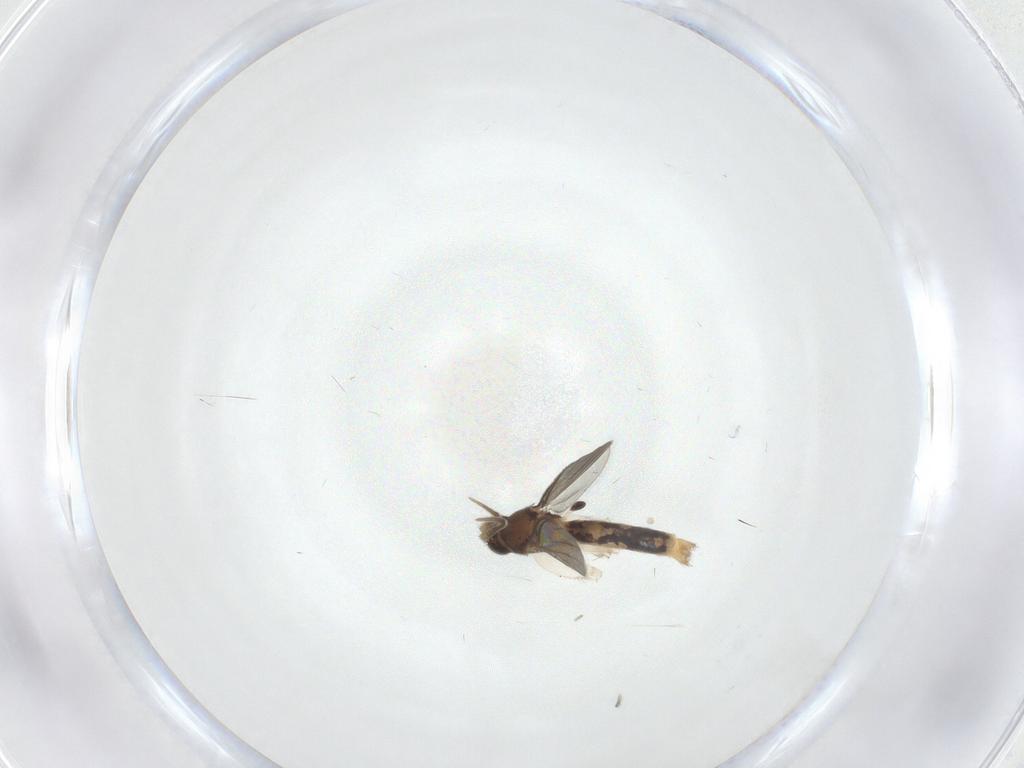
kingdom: Animalia
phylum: Arthropoda
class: Insecta
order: Diptera
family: Mycetophilidae
